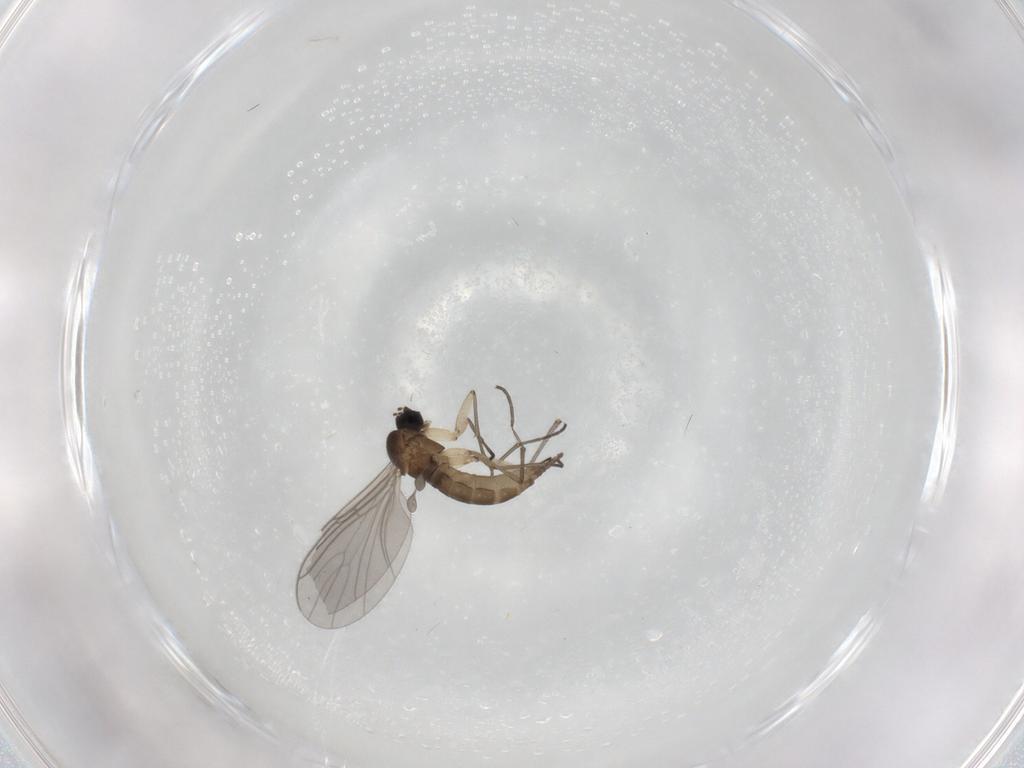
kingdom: Animalia
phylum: Arthropoda
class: Insecta
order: Diptera
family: Sciaridae
